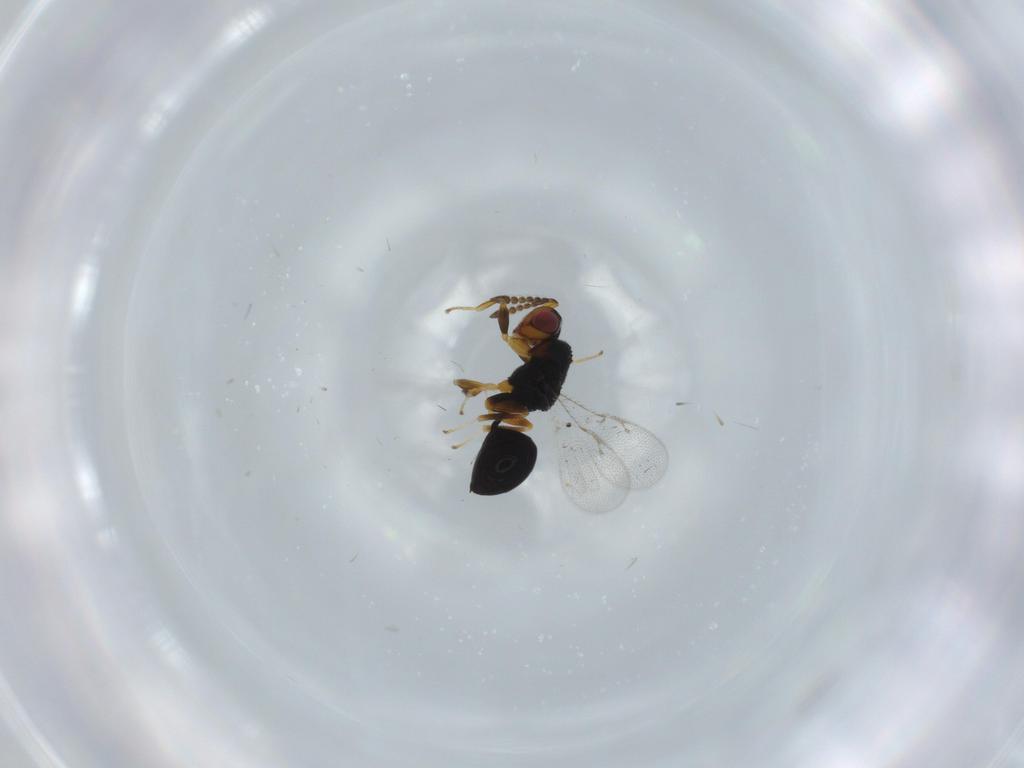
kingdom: Animalia
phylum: Arthropoda
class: Insecta
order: Hymenoptera
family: Eurytomidae
